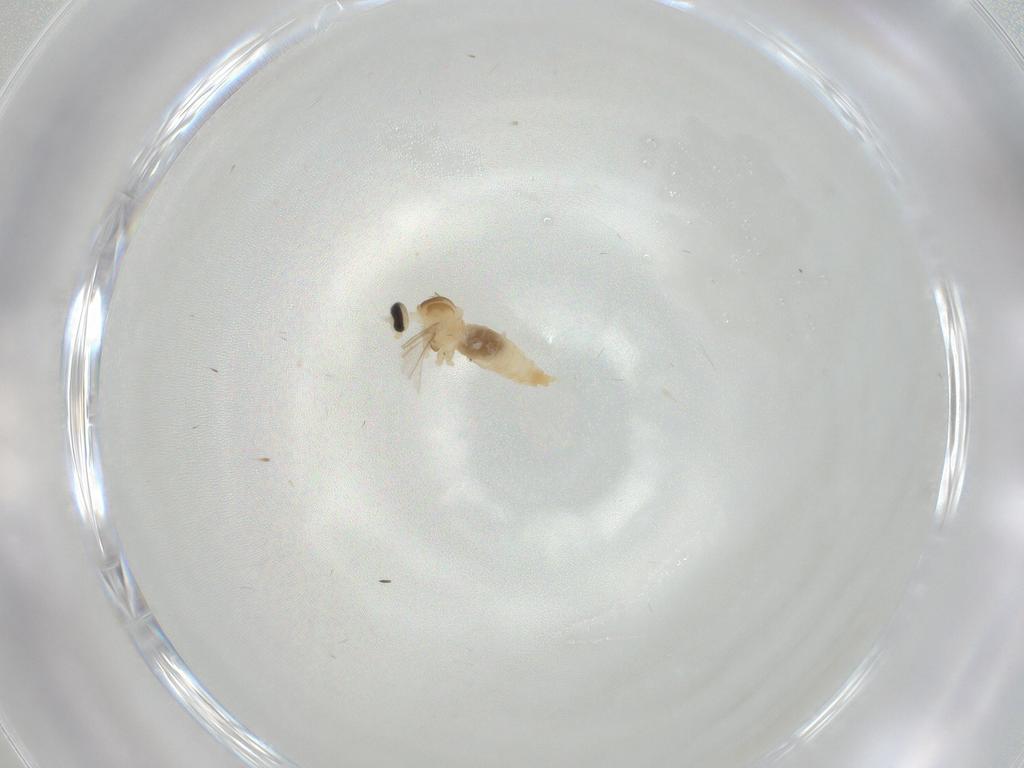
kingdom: Animalia
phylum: Arthropoda
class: Insecta
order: Diptera
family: Cecidomyiidae
